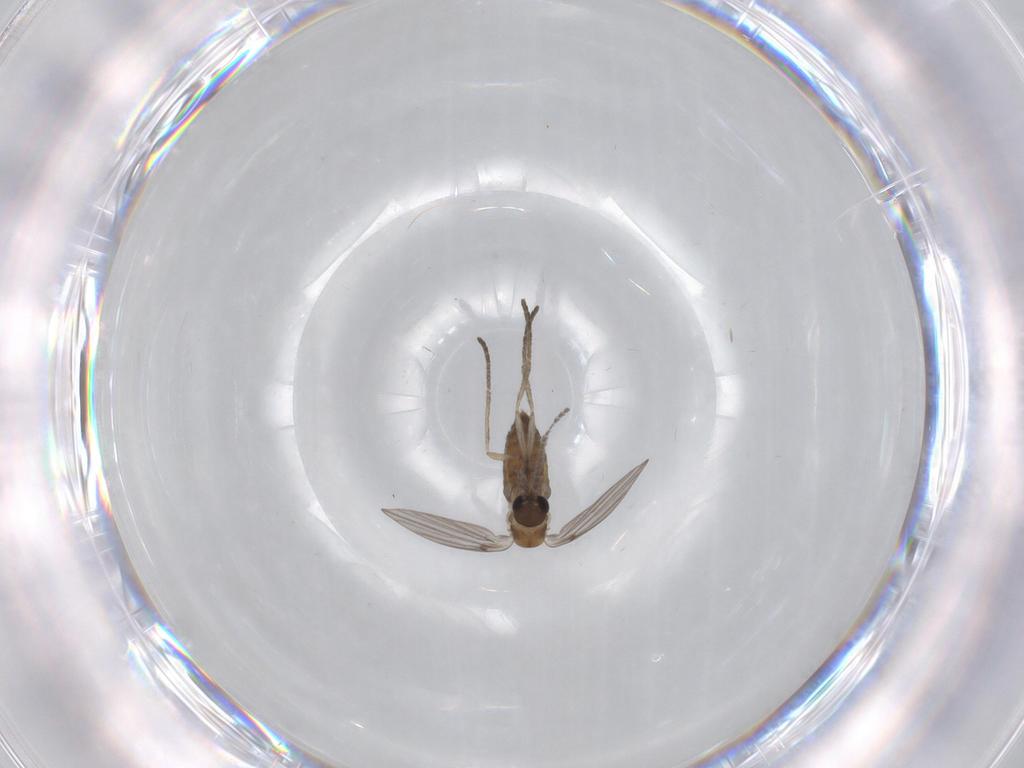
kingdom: Animalia
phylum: Arthropoda
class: Insecta
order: Diptera
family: Psychodidae
